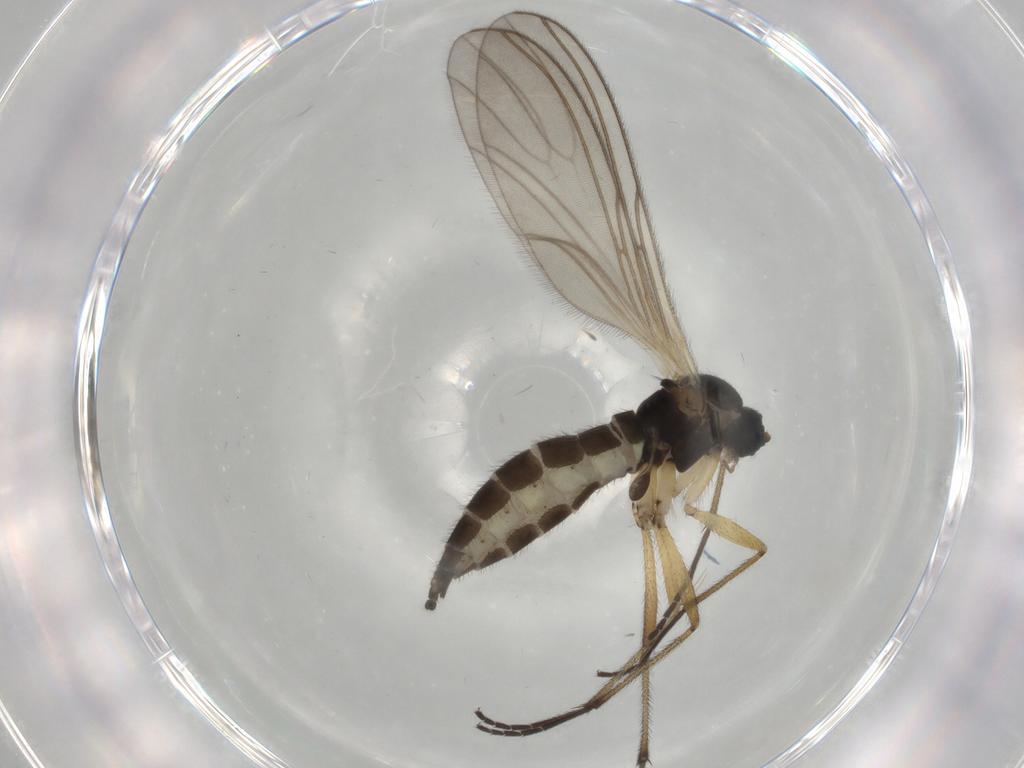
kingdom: Animalia
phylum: Arthropoda
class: Insecta
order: Diptera
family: Sciaridae
